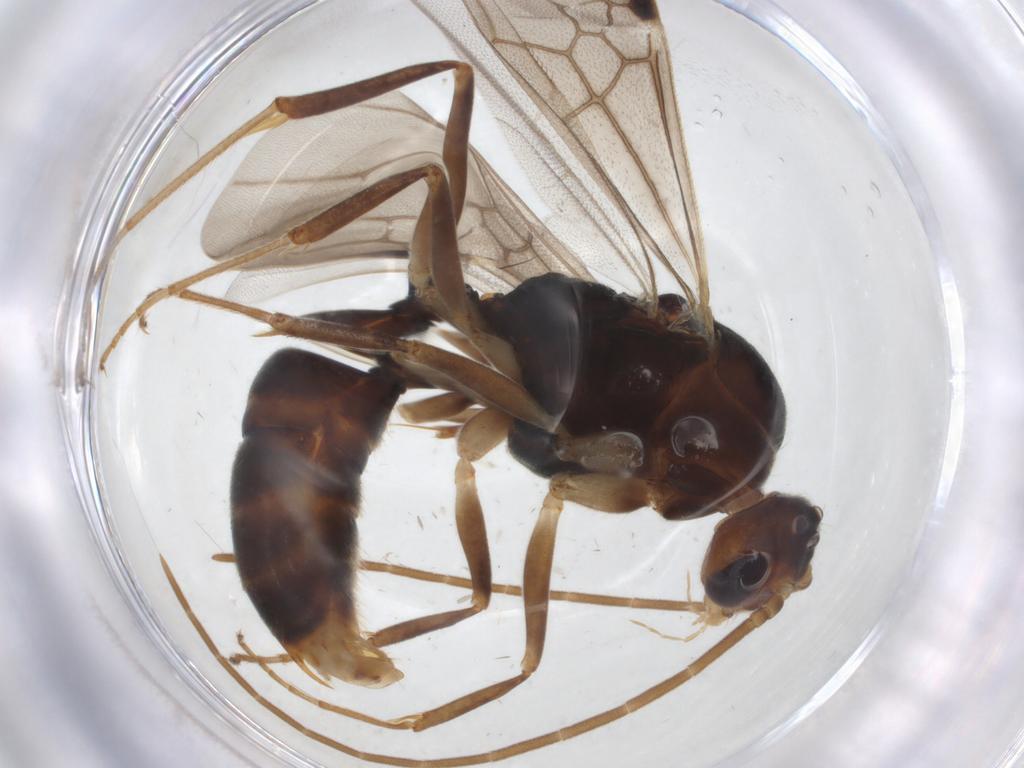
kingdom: Animalia
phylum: Arthropoda
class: Insecta
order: Hymenoptera
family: Formicidae
